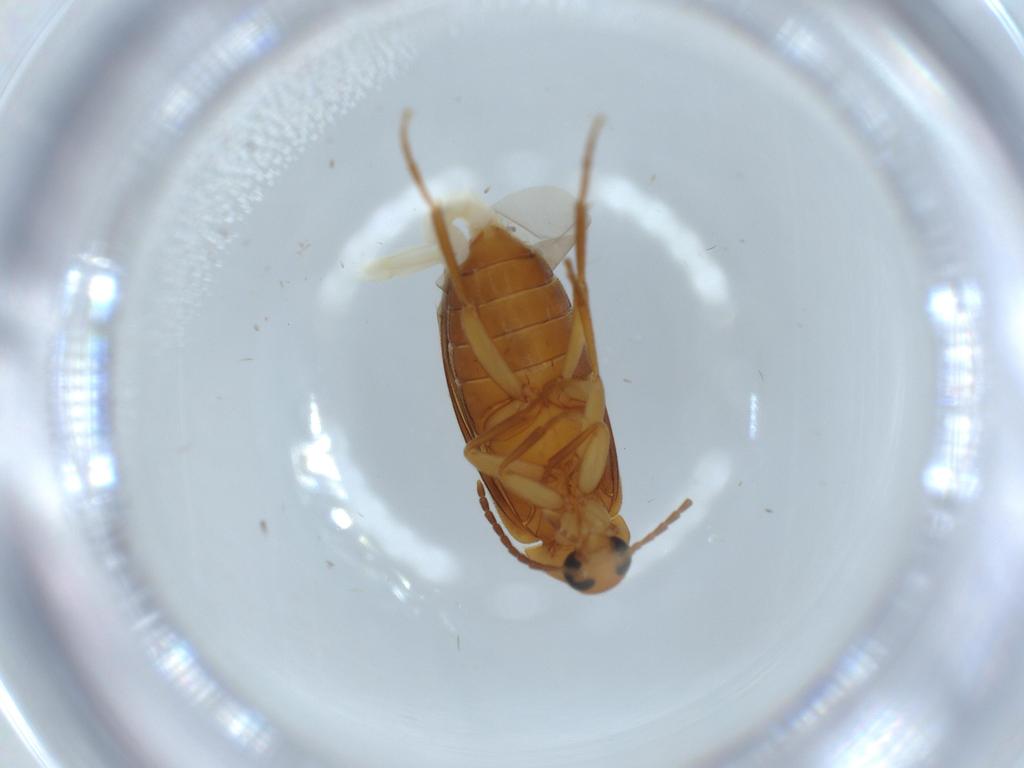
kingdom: Animalia
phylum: Arthropoda
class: Insecta
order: Coleoptera
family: Scraptiidae
